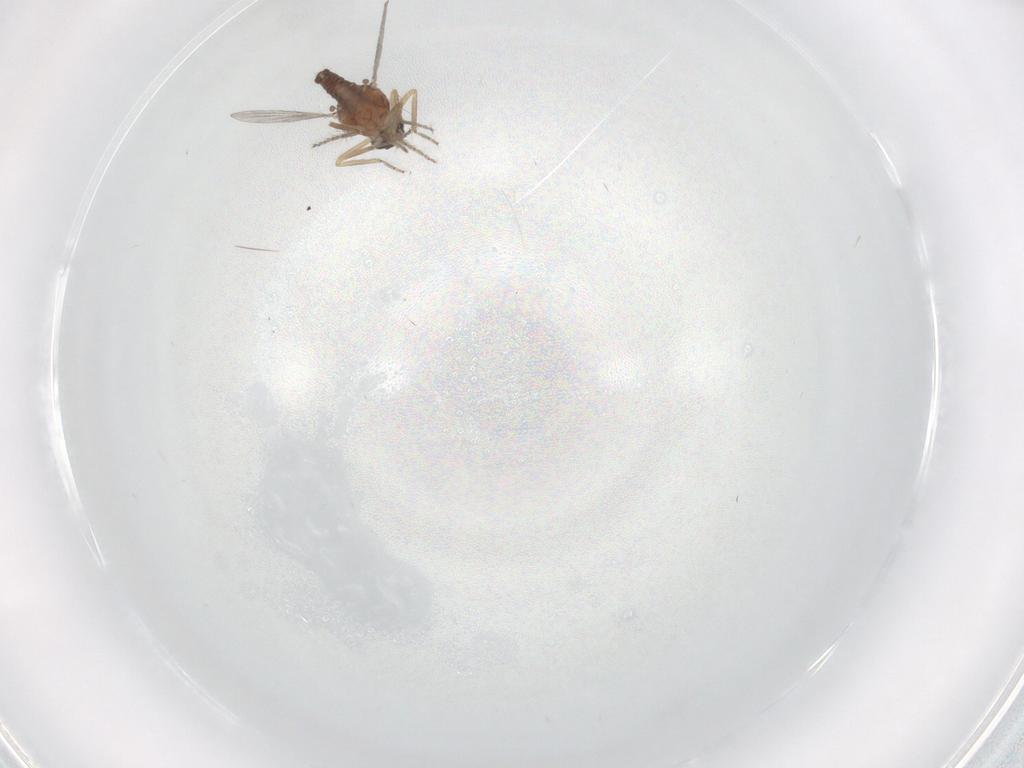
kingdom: Animalia
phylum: Arthropoda
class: Insecta
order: Diptera
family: Ceratopogonidae
